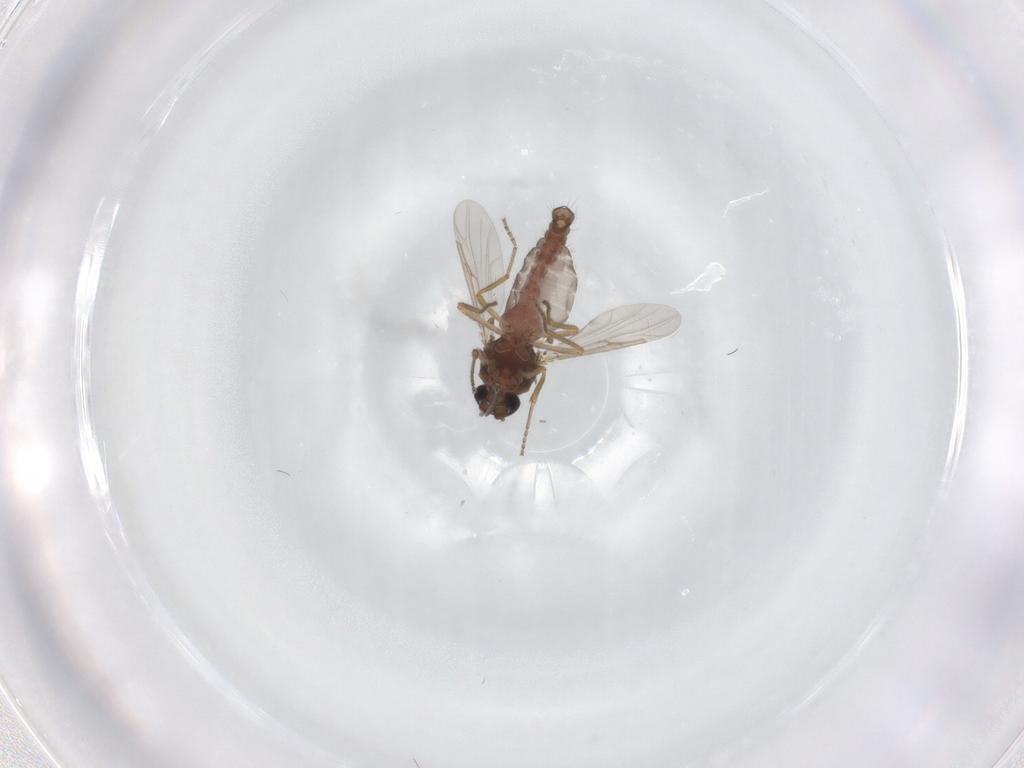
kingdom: Animalia
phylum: Arthropoda
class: Insecta
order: Diptera
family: Ceratopogonidae
